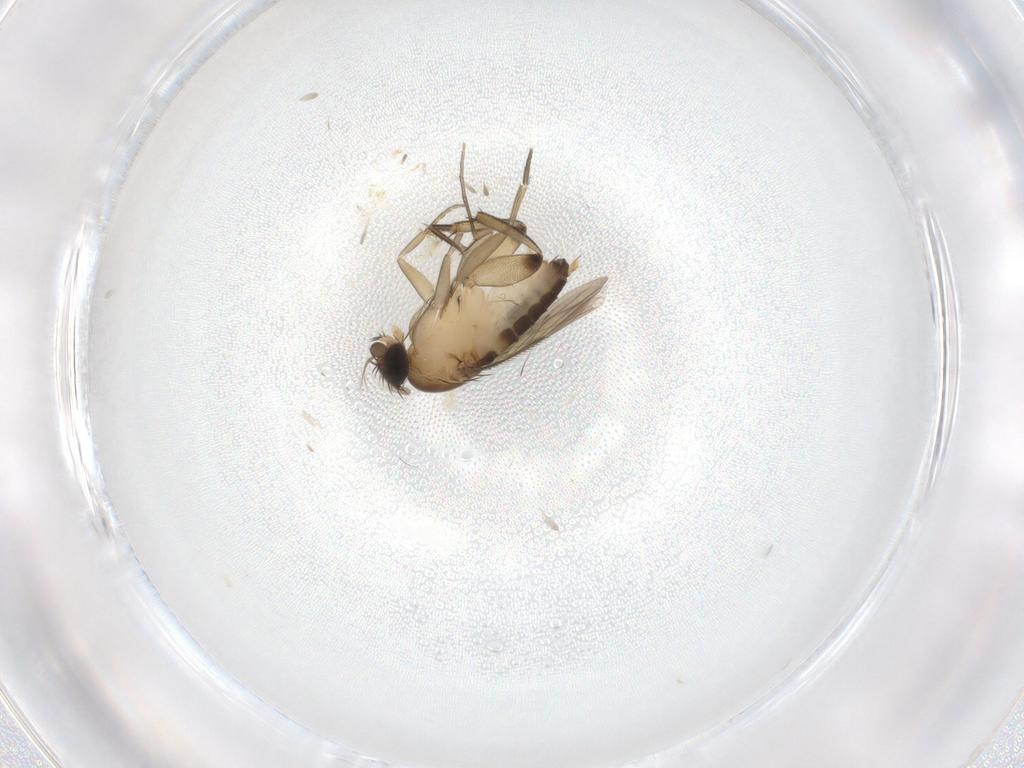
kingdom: Animalia
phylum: Arthropoda
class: Insecta
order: Diptera
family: Phoridae
